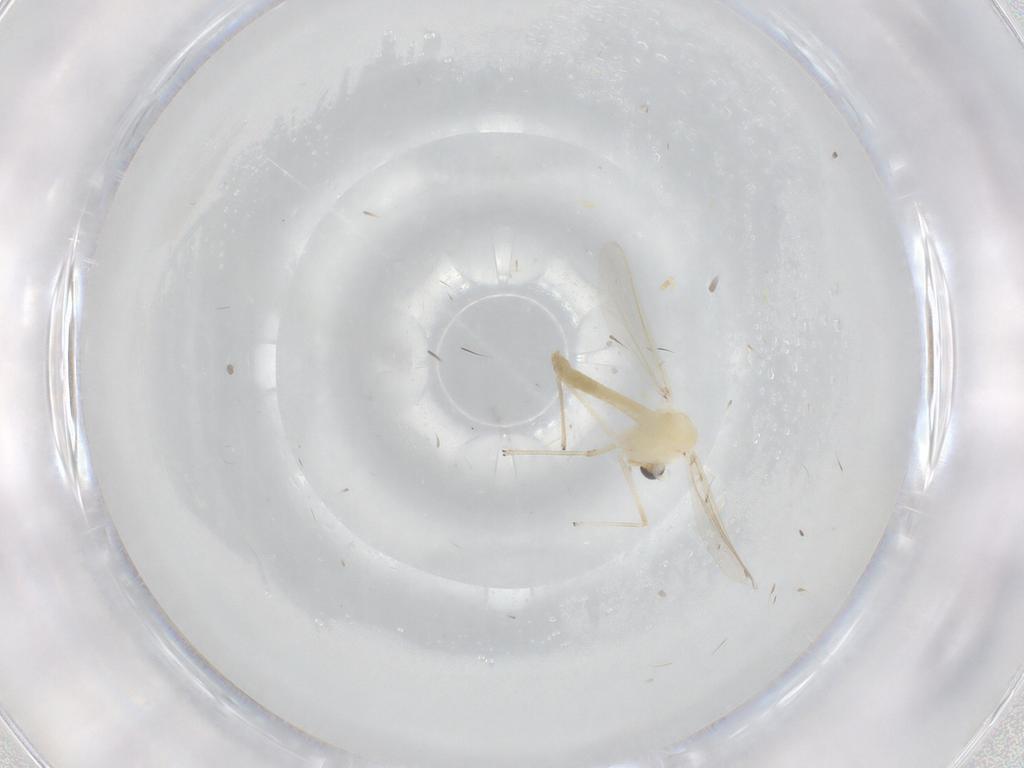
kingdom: Animalia
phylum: Arthropoda
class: Insecta
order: Diptera
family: Chironomidae
